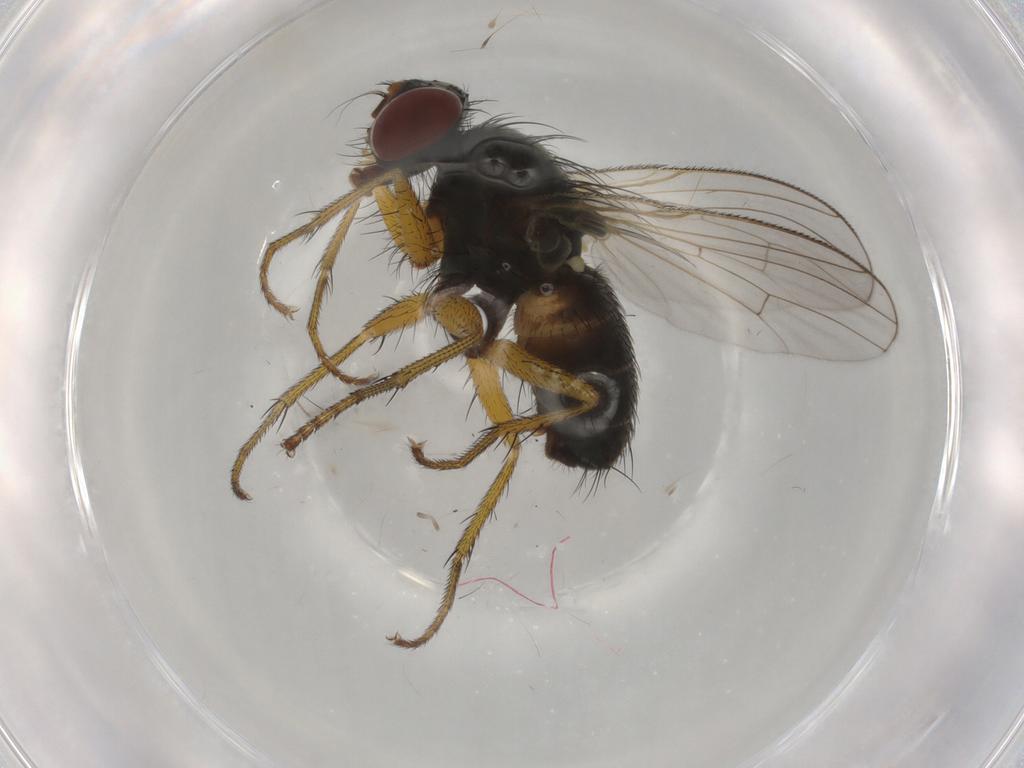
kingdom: Animalia
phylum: Arthropoda
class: Insecta
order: Diptera
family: Muscidae
